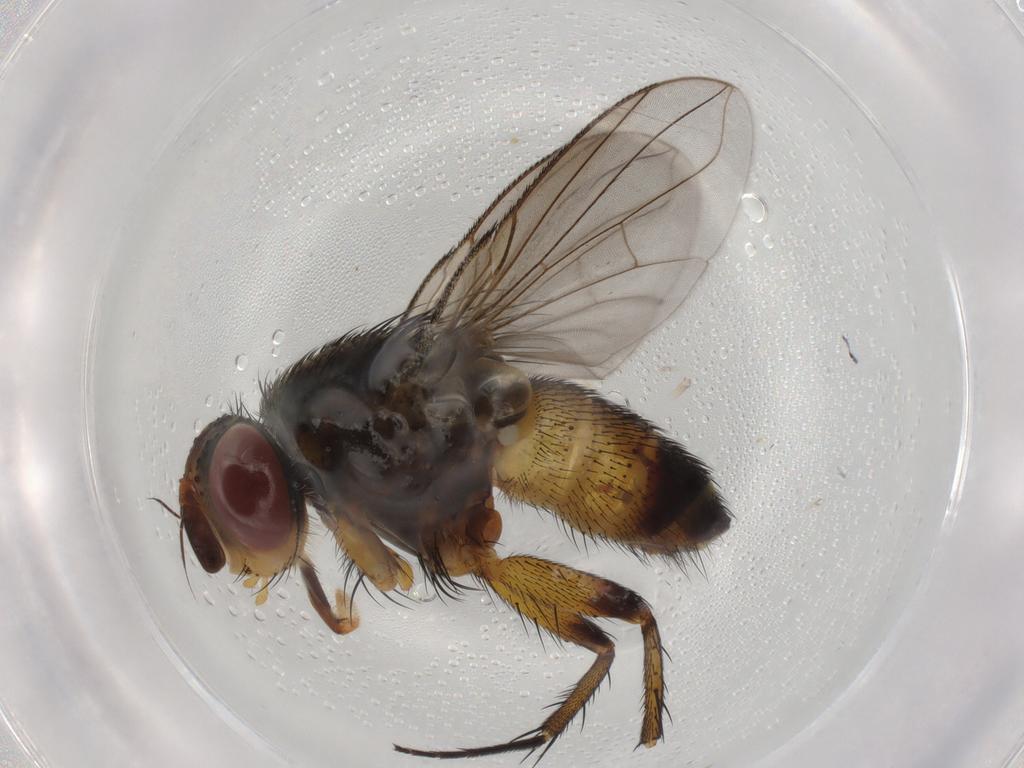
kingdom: Animalia
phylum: Arthropoda
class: Insecta
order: Diptera
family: Tachinidae
